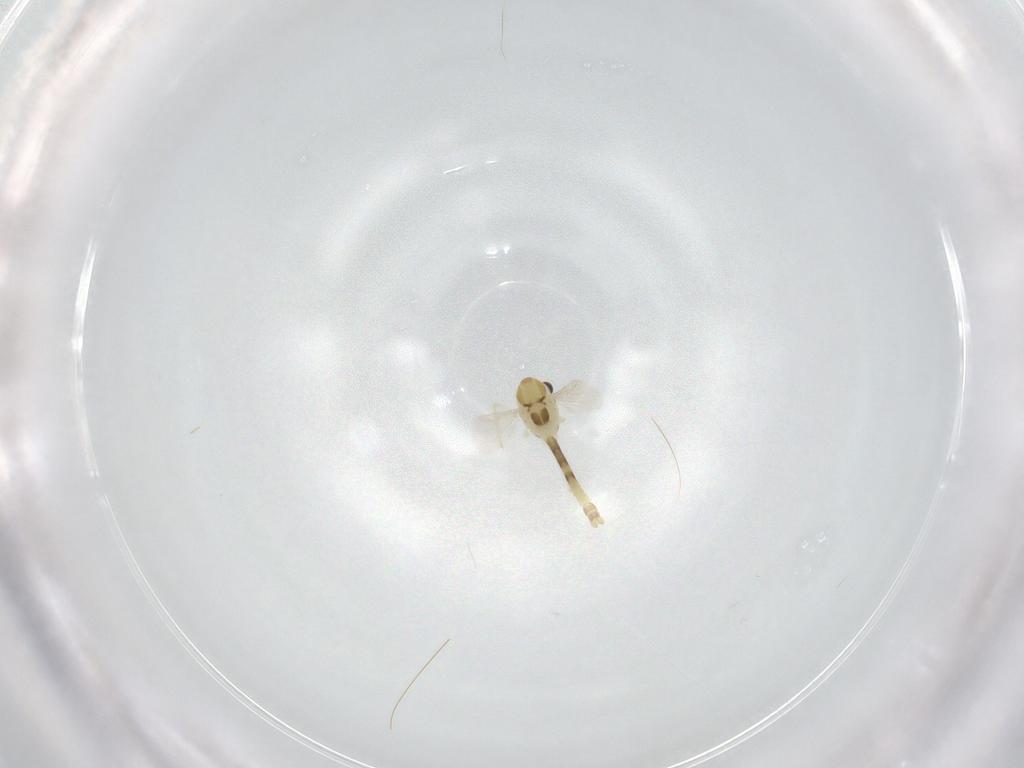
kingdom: Animalia
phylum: Arthropoda
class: Insecta
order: Diptera
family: Chironomidae
